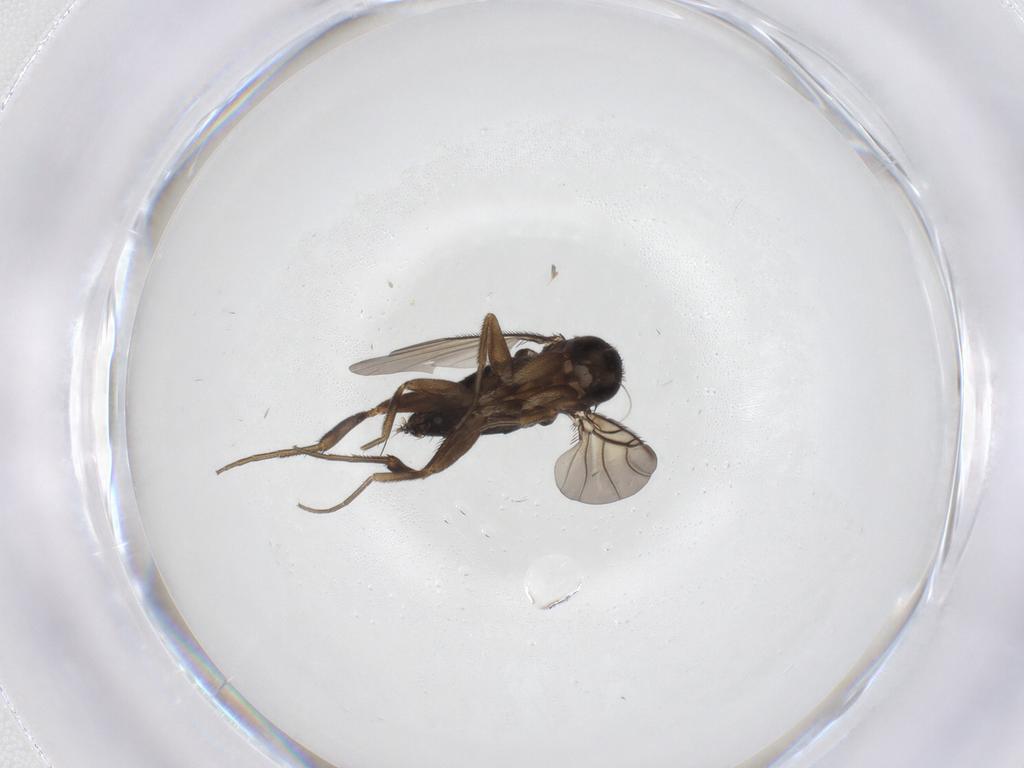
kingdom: Animalia
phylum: Arthropoda
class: Insecta
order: Diptera
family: Phoridae
